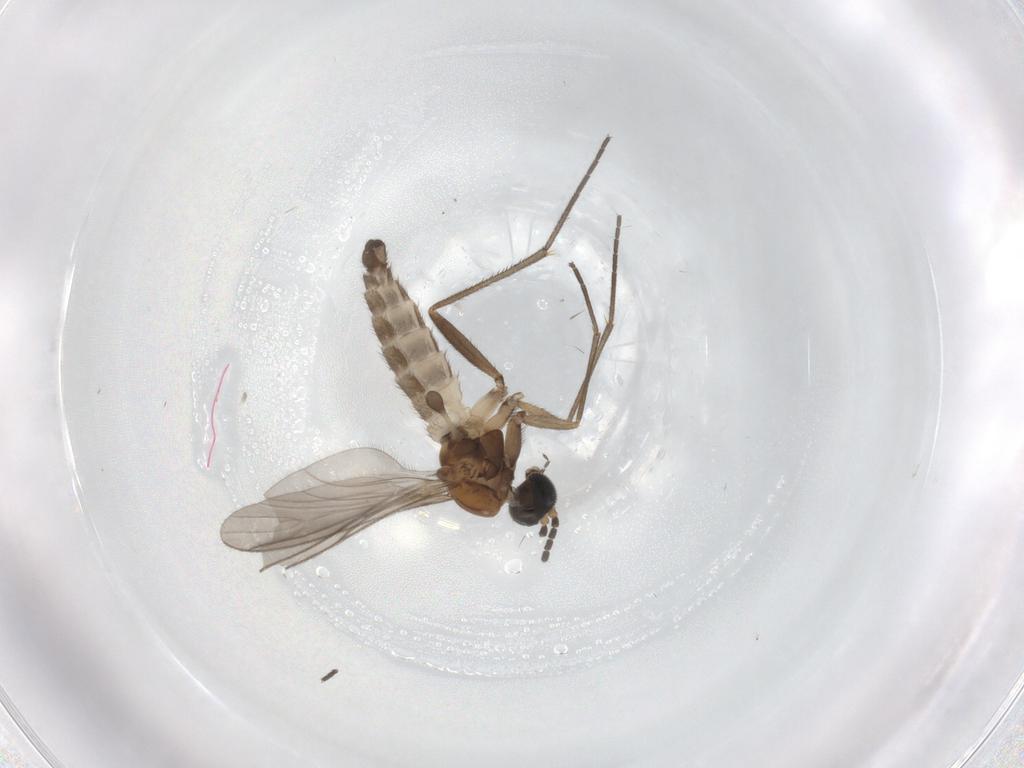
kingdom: Animalia
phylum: Arthropoda
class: Insecta
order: Diptera
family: Sciaridae
